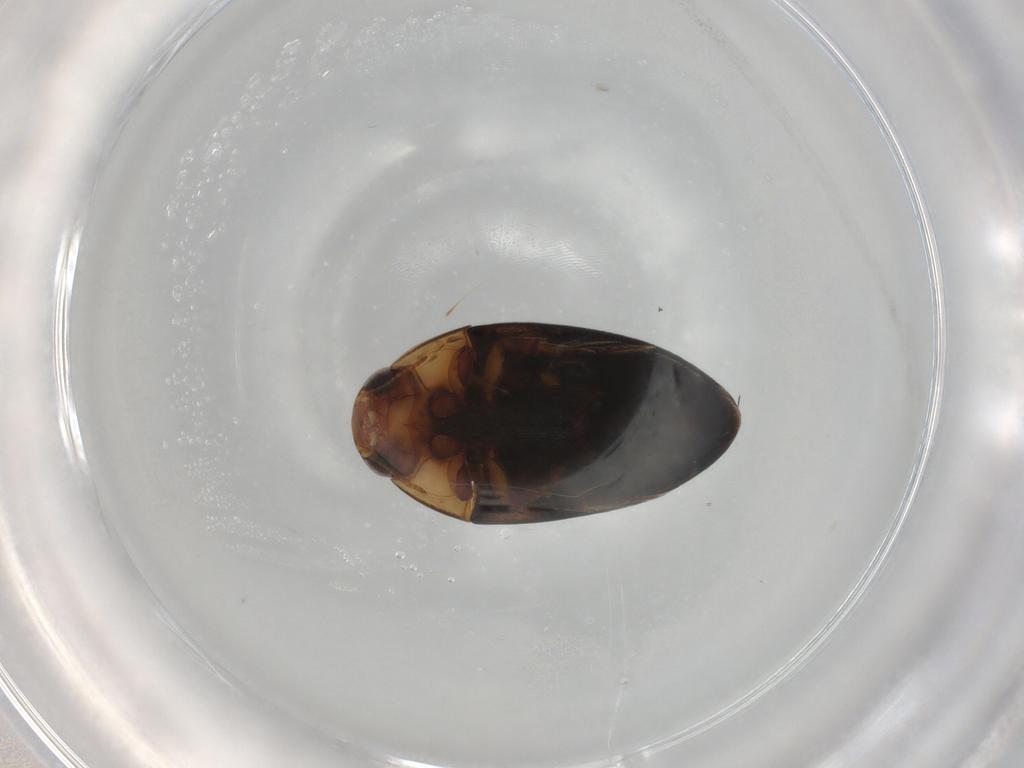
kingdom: Animalia
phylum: Arthropoda
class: Insecta
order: Coleoptera
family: Noteridae
